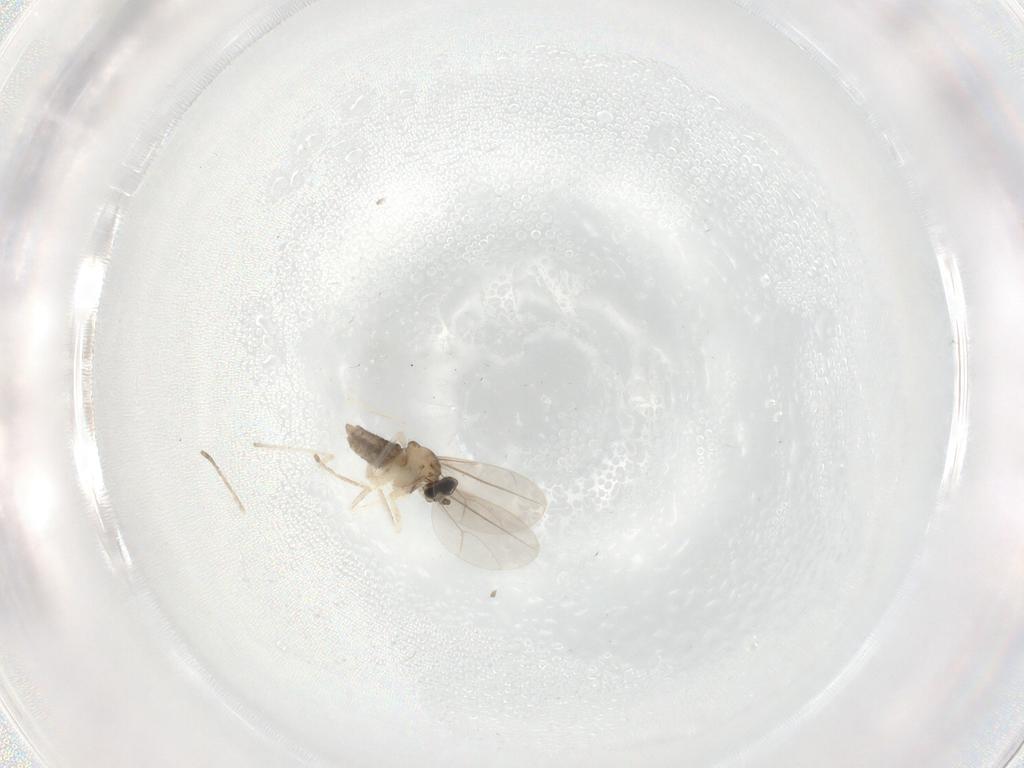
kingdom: Animalia
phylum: Arthropoda
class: Insecta
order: Diptera
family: Cecidomyiidae
